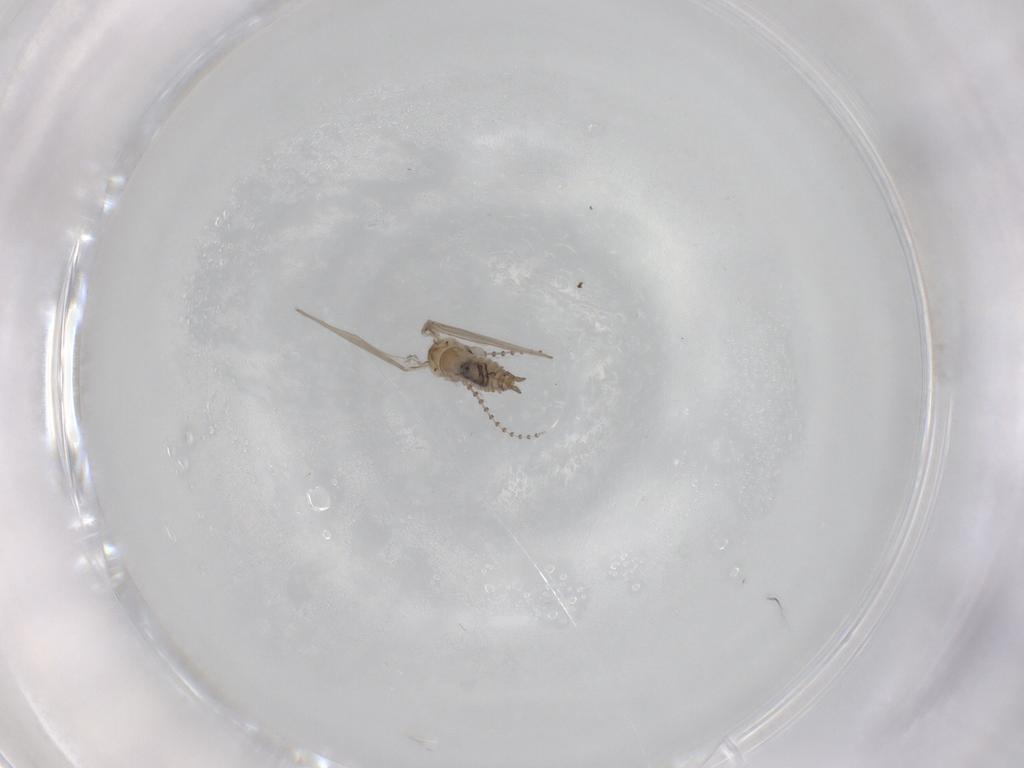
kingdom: Animalia
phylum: Arthropoda
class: Insecta
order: Diptera
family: Psychodidae
